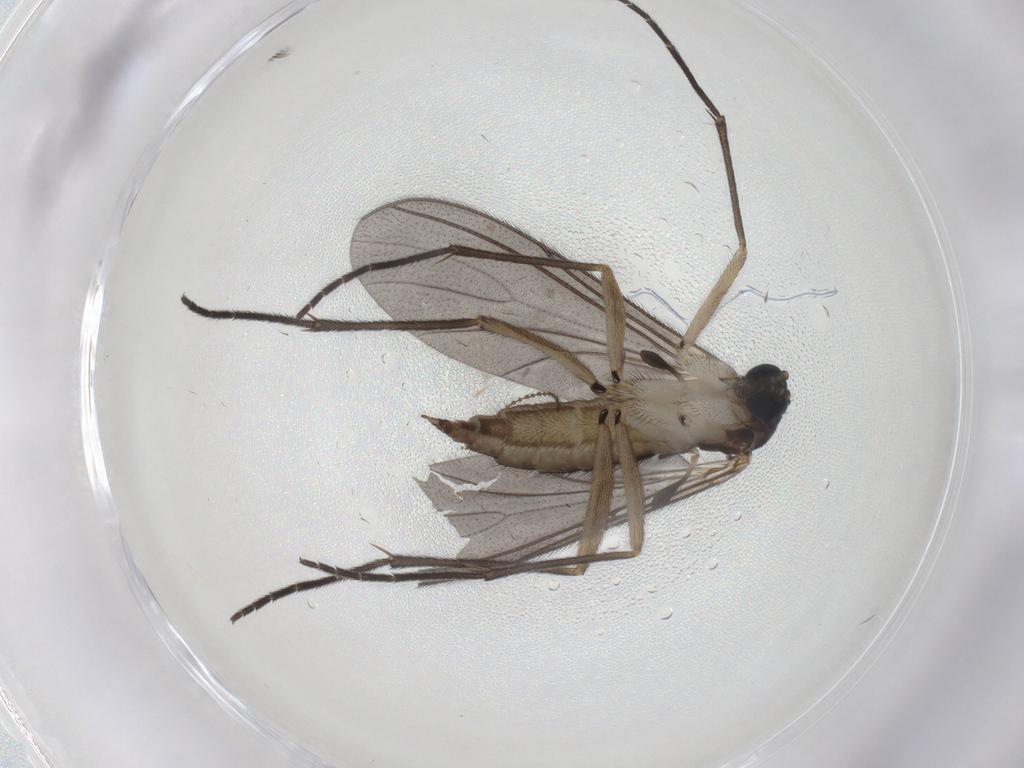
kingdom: Animalia
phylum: Arthropoda
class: Insecta
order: Diptera
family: Sciaridae
